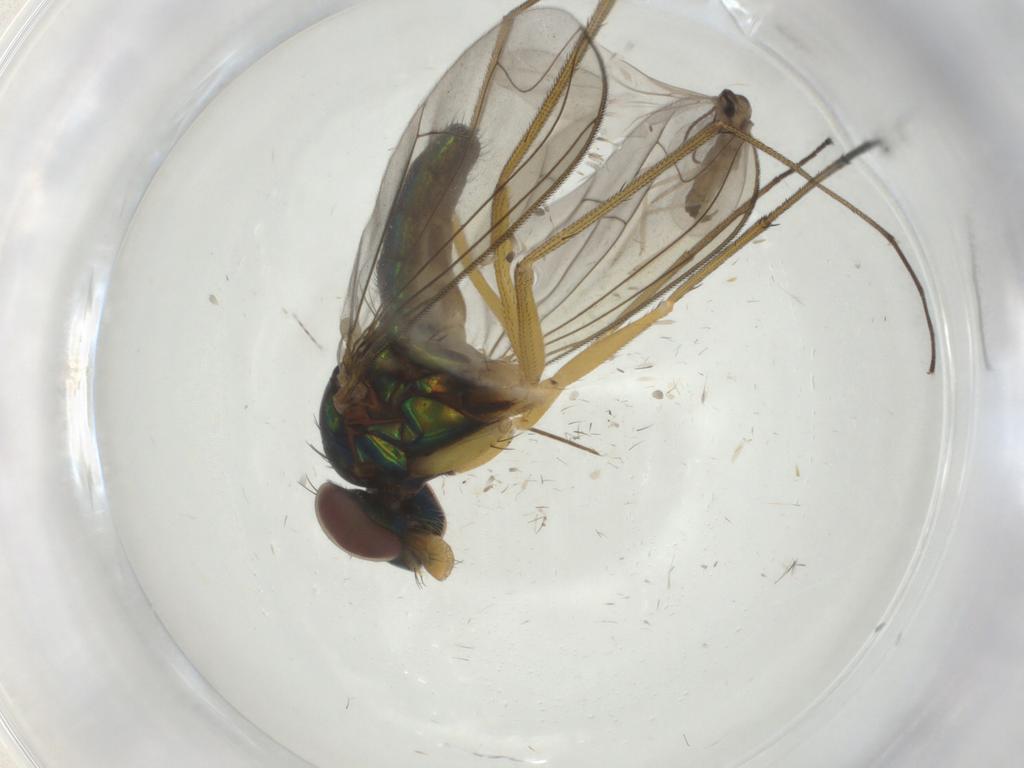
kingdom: Animalia
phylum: Arthropoda
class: Insecta
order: Diptera
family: Dolichopodidae
